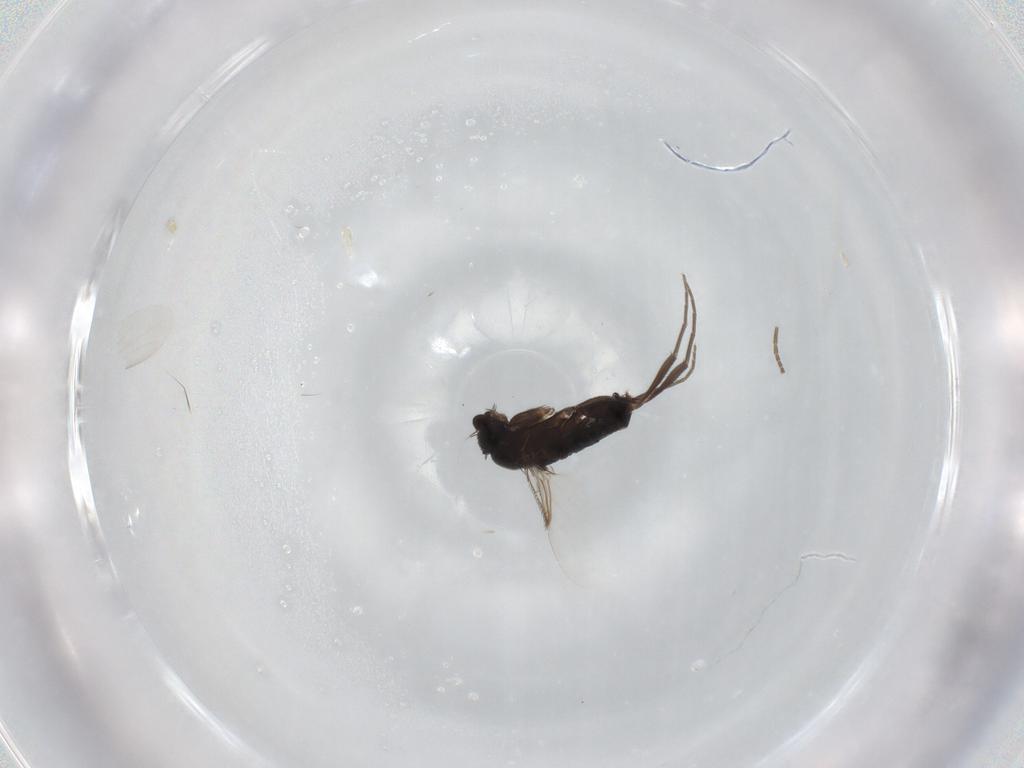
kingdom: Animalia
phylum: Arthropoda
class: Insecta
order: Diptera
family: Phoridae
